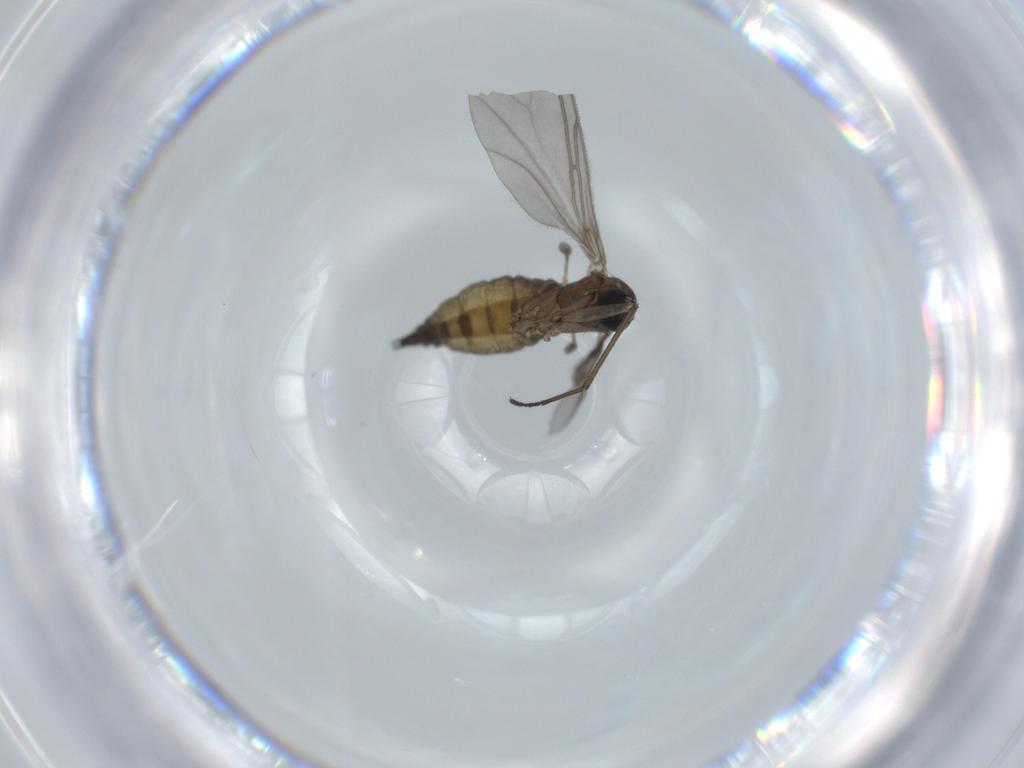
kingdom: Animalia
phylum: Arthropoda
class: Insecta
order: Diptera
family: Sciaridae
